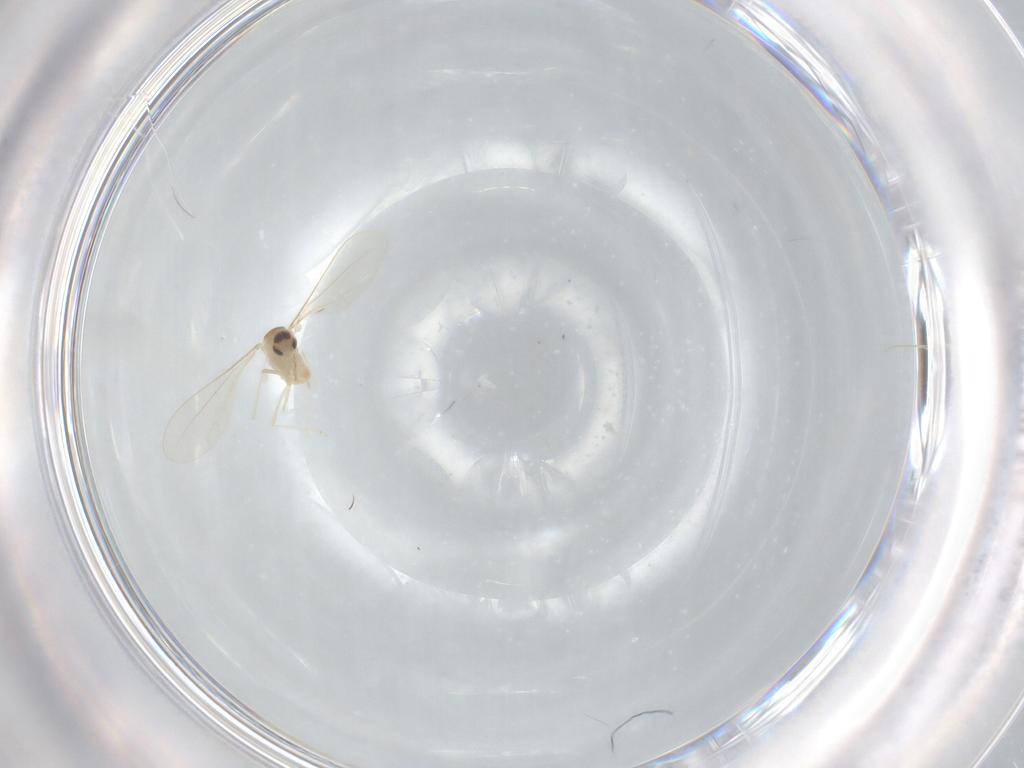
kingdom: Animalia
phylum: Arthropoda
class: Insecta
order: Diptera
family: Cecidomyiidae
